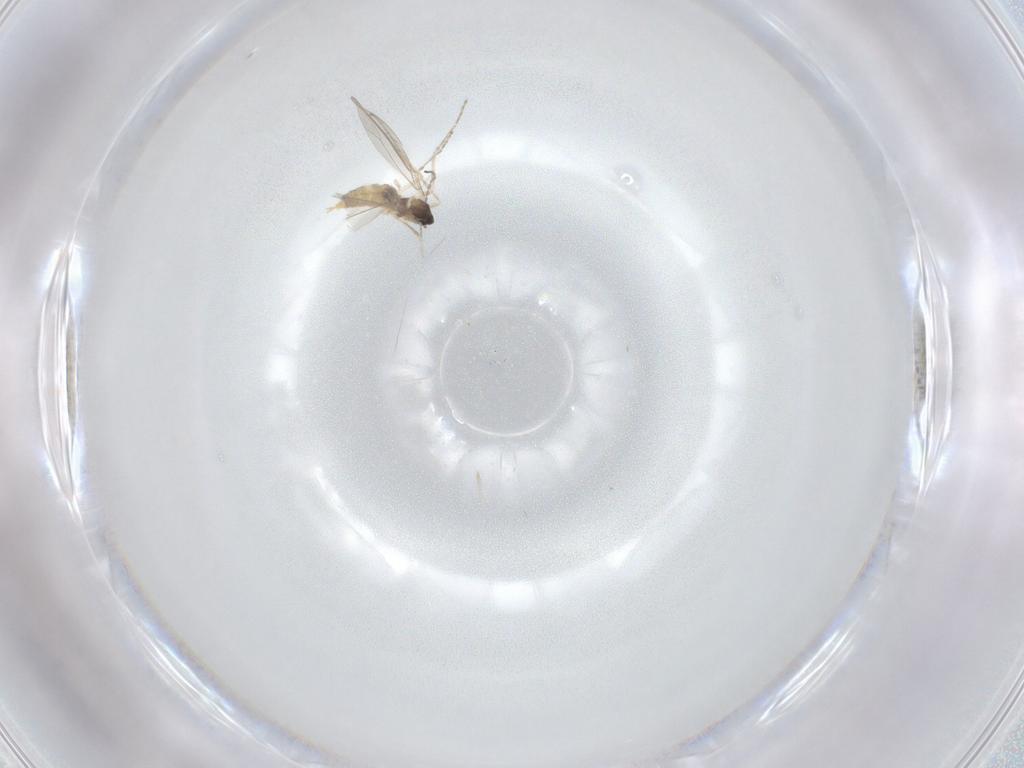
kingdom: Animalia
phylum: Arthropoda
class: Insecta
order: Diptera
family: Cecidomyiidae
